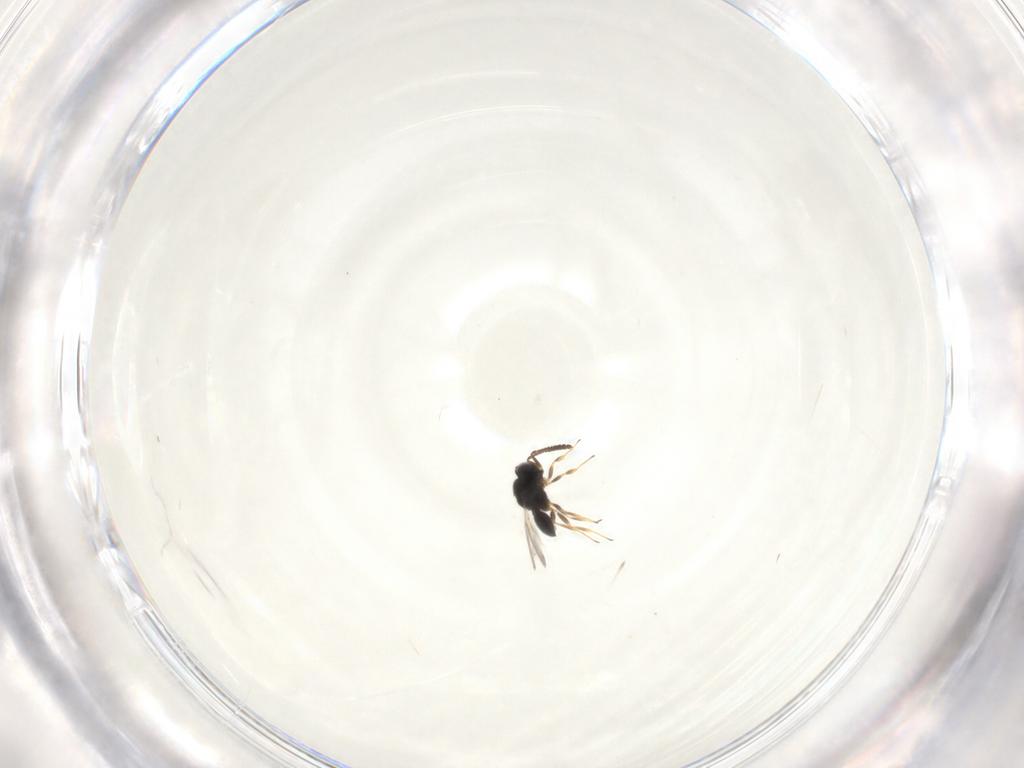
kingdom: Animalia
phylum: Arthropoda
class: Insecta
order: Hymenoptera
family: Scelionidae
